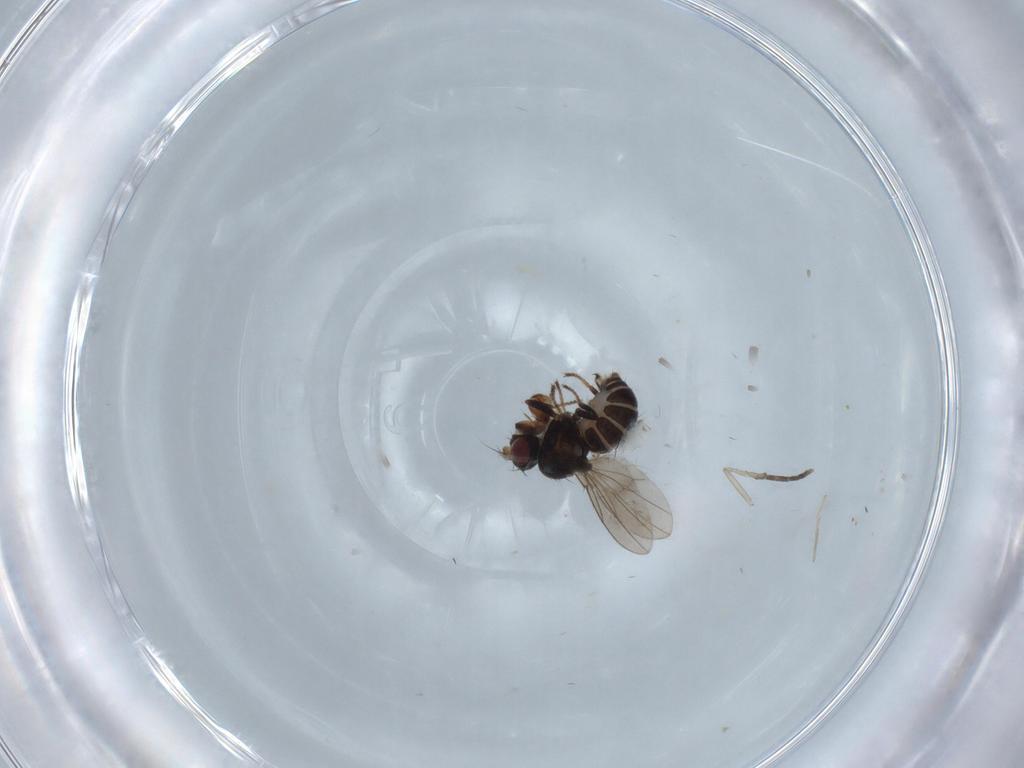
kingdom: Animalia
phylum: Arthropoda
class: Insecta
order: Diptera
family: Ephydridae
